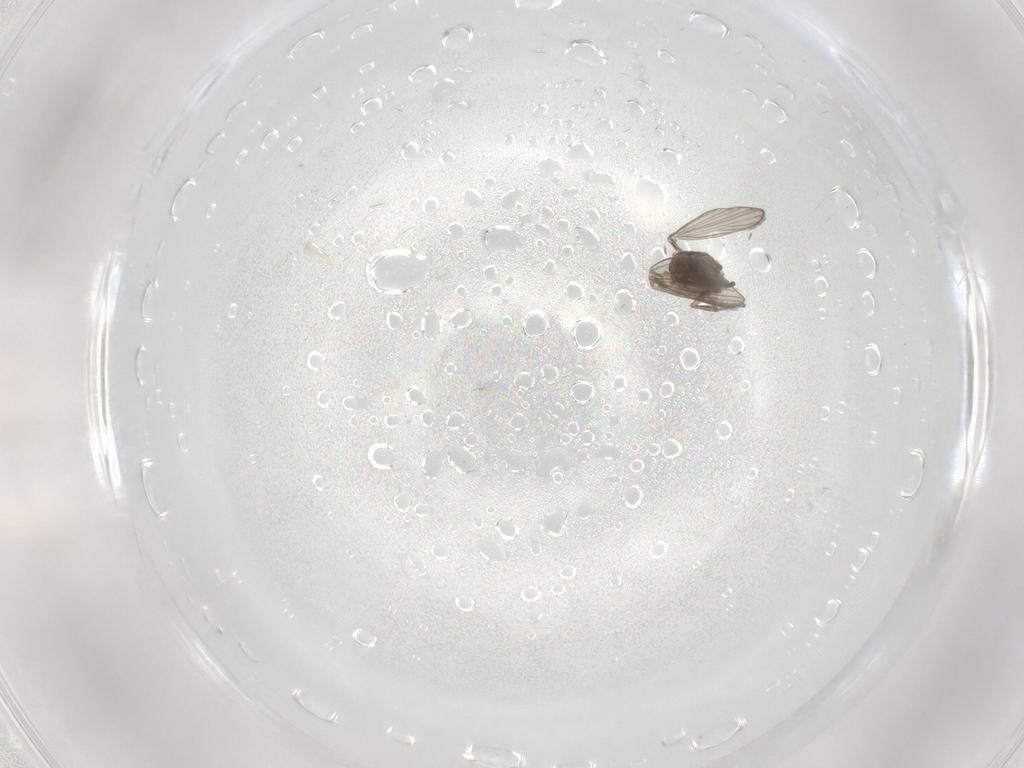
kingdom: Animalia
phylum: Arthropoda
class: Insecta
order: Diptera
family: Psychodidae
